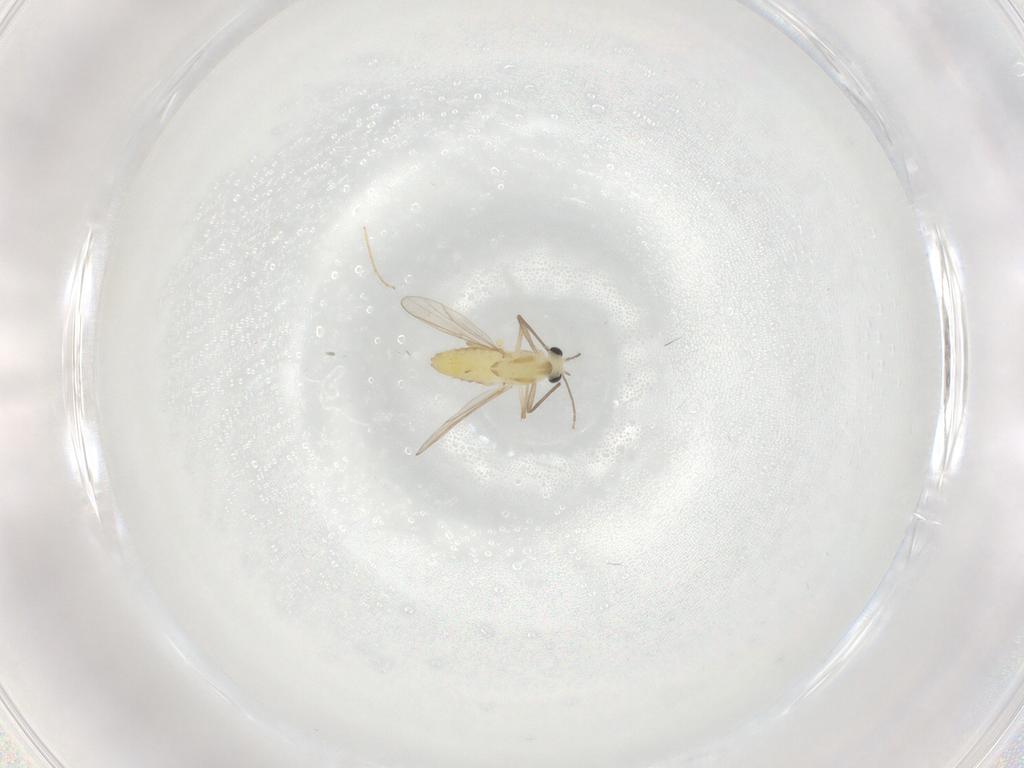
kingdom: Animalia
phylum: Arthropoda
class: Insecta
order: Diptera
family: Chironomidae
